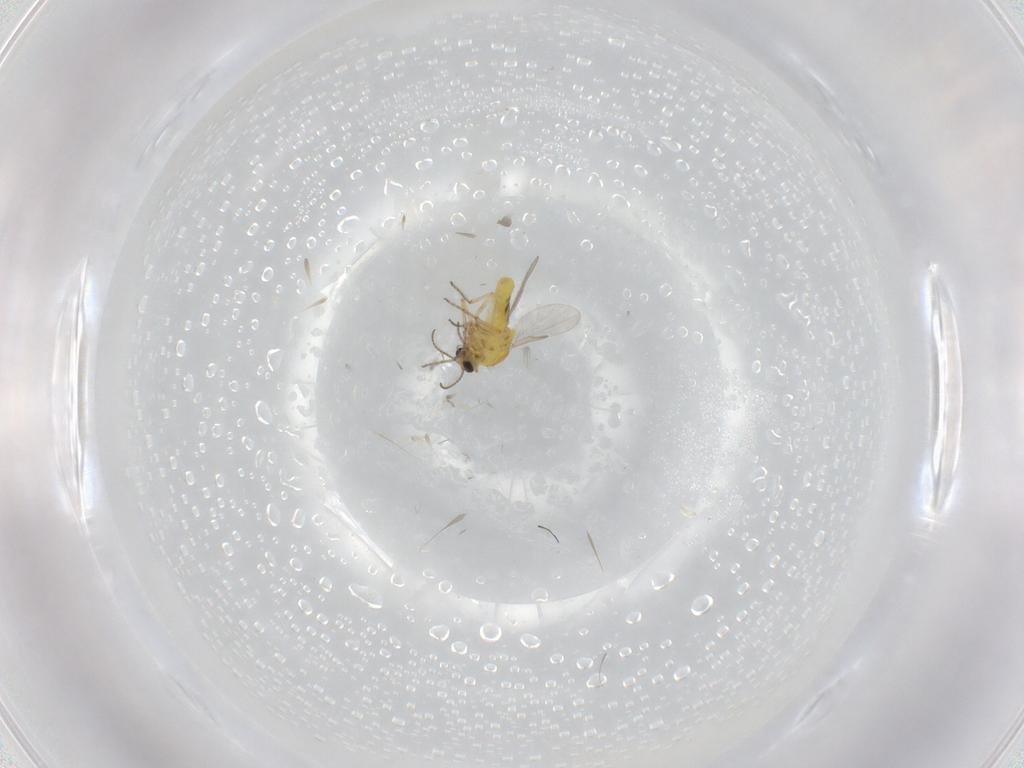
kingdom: Animalia
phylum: Arthropoda
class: Insecta
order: Diptera
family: Ceratopogonidae
